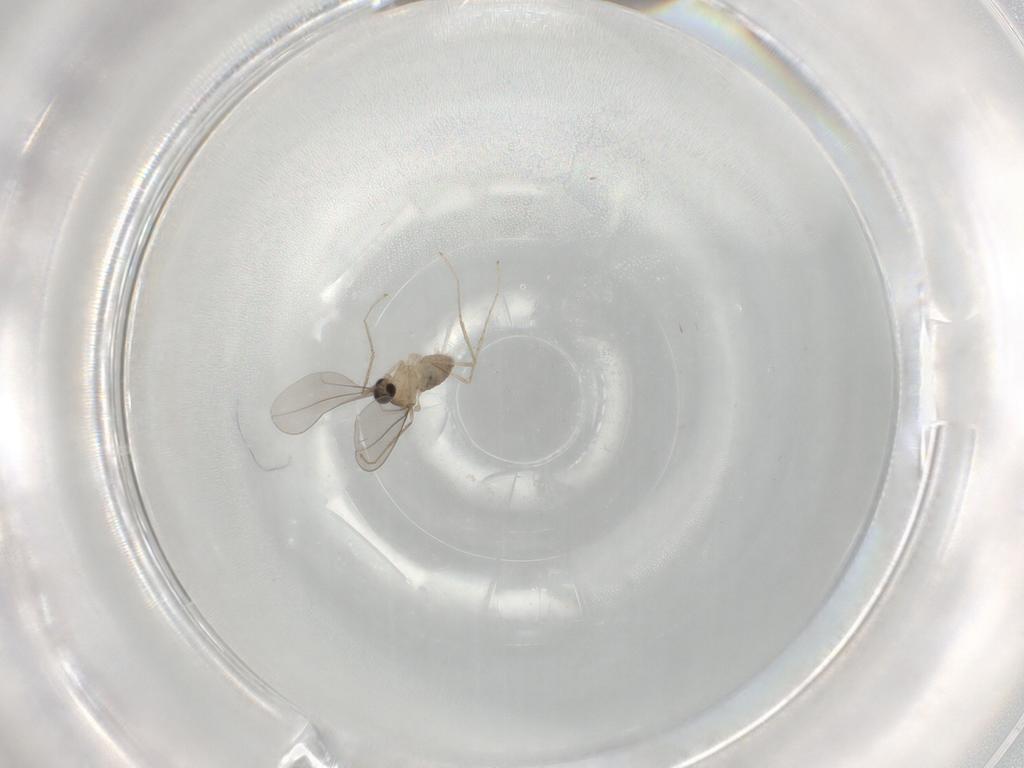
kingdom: Animalia
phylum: Arthropoda
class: Insecta
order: Diptera
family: Cecidomyiidae
